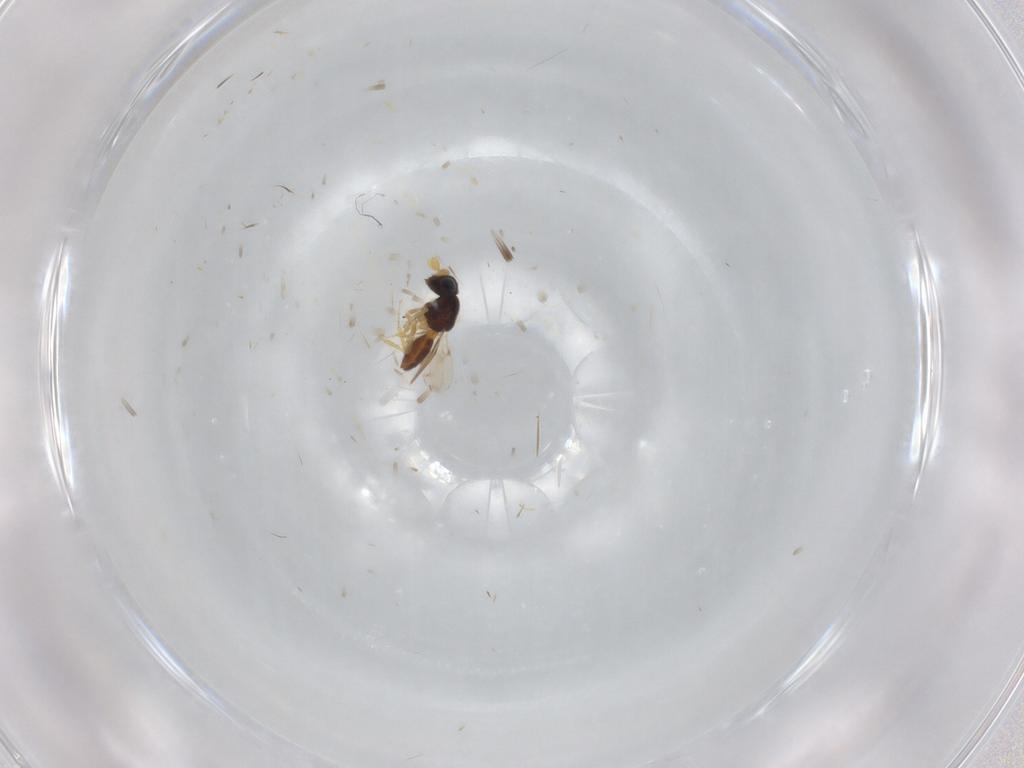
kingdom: Animalia
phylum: Arthropoda
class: Insecta
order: Hymenoptera
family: Scelionidae
